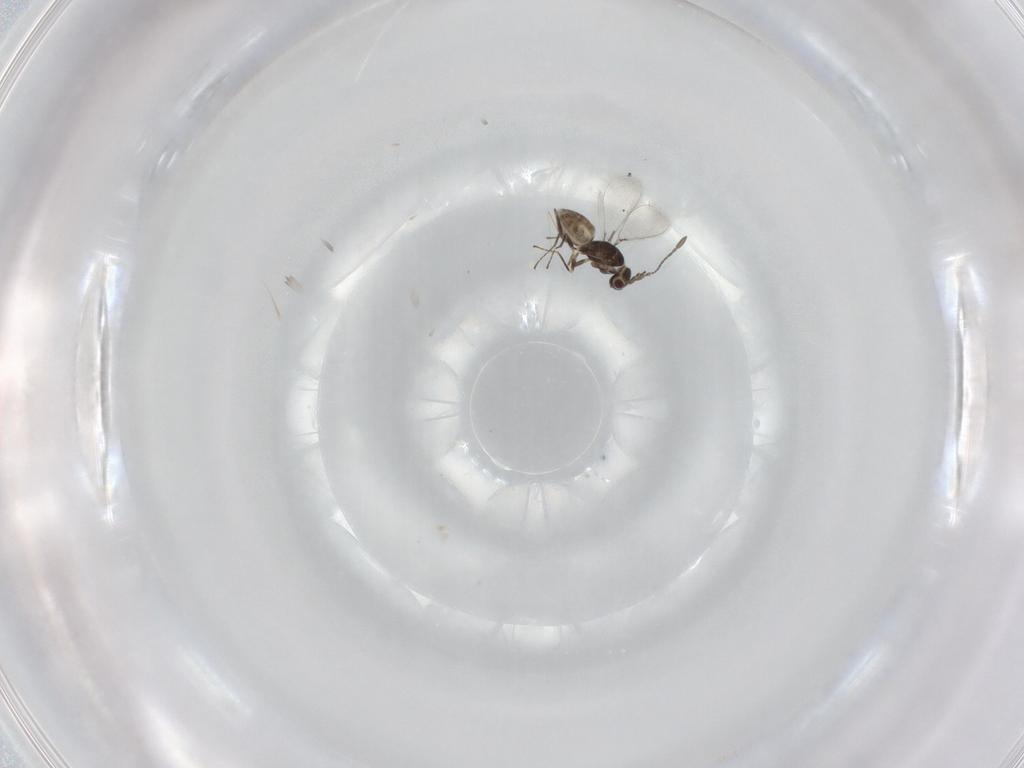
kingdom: Animalia
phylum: Arthropoda
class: Insecta
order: Hymenoptera
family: Mymaridae
